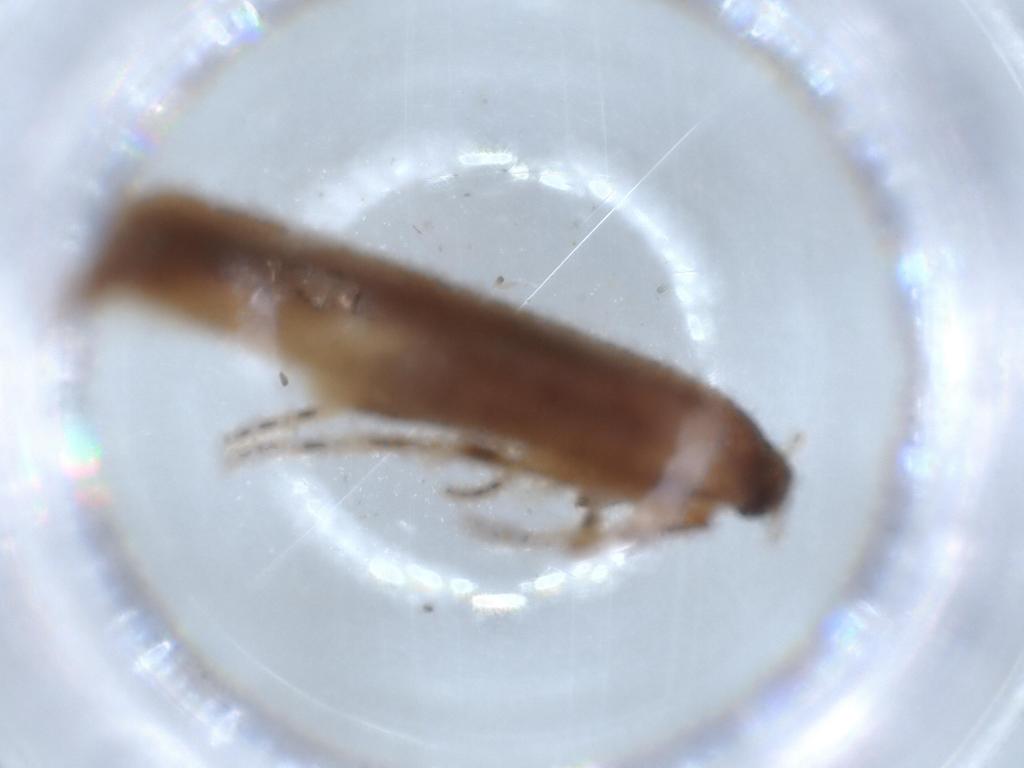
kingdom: Animalia
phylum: Arthropoda
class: Insecta
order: Lepidoptera
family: Stathmopodidae
